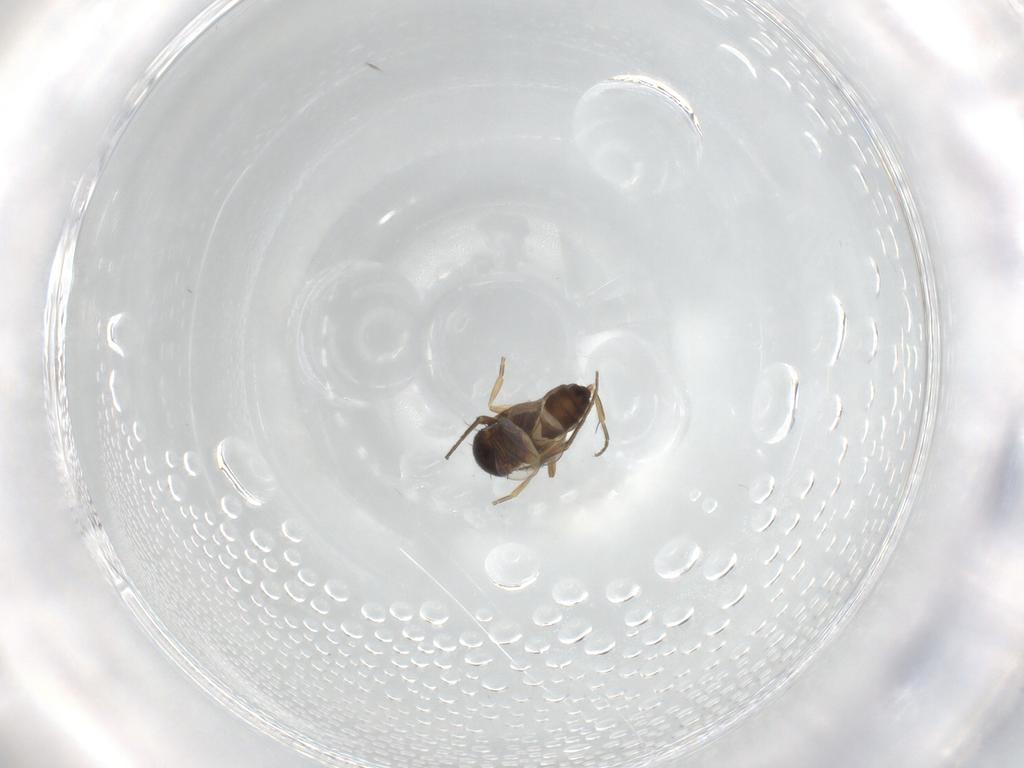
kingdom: Animalia
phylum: Arthropoda
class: Insecta
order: Diptera
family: Phoridae
